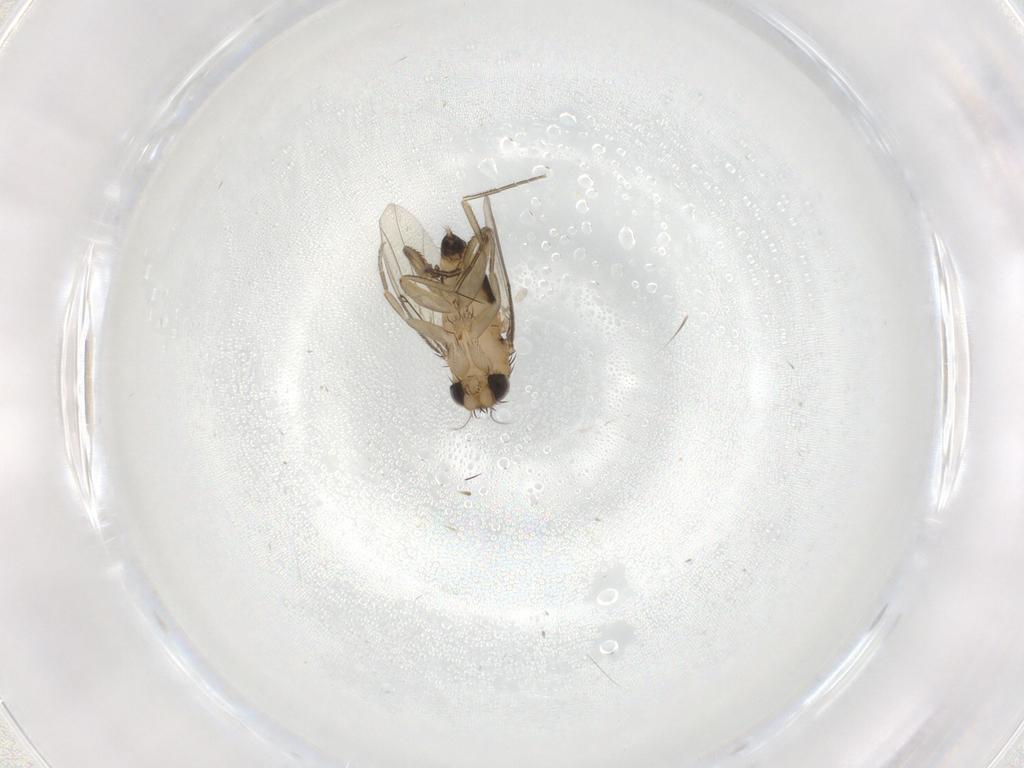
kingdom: Animalia
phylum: Arthropoda
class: Insecta
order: Diptera
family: Phoridae
